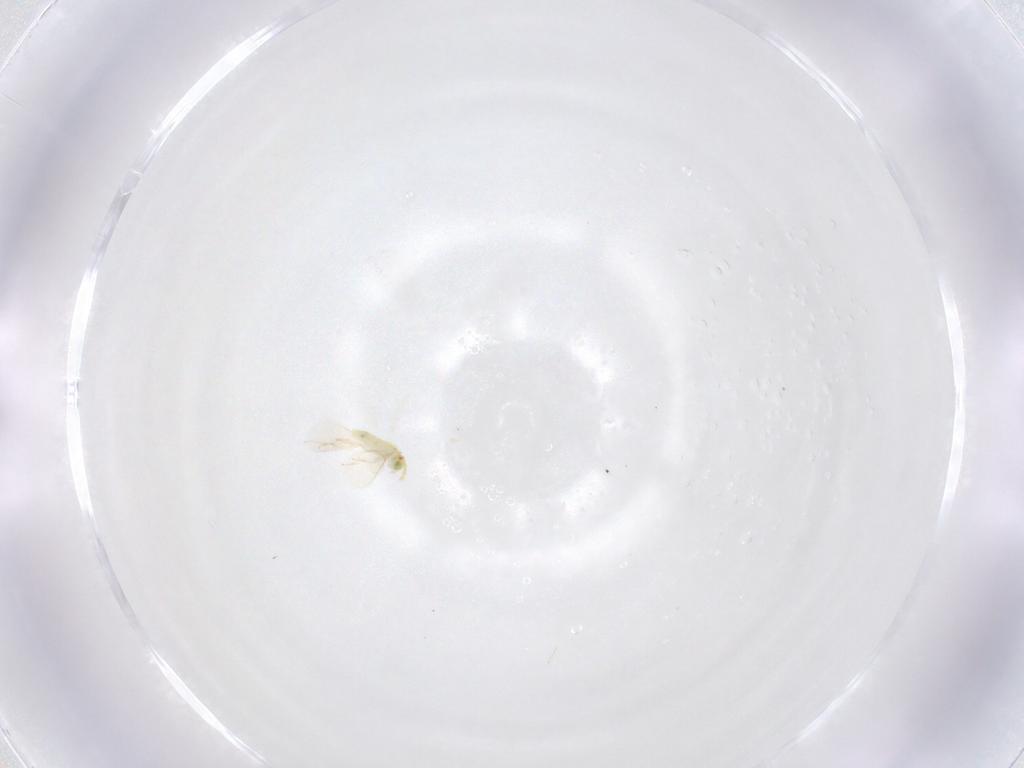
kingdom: Animalia
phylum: Arthropoda
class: Insecta
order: Hymenoptera
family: Aphelinidae
